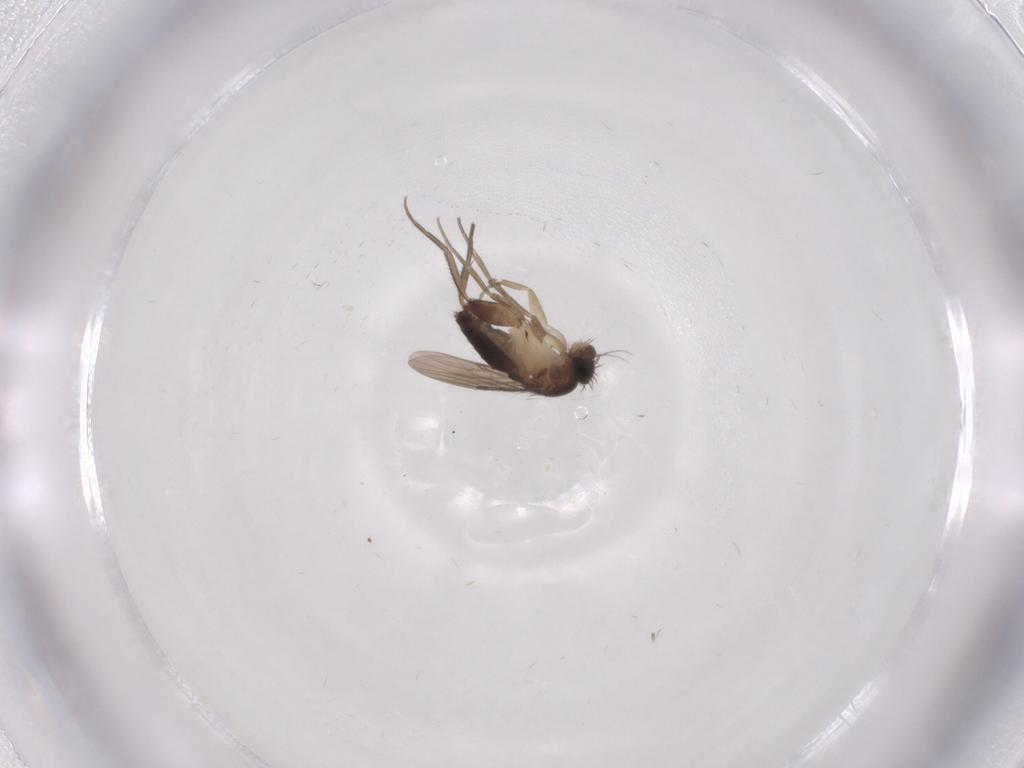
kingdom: Animalia
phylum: Arthropoda
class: Insecta
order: Diptera
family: Phoridae
